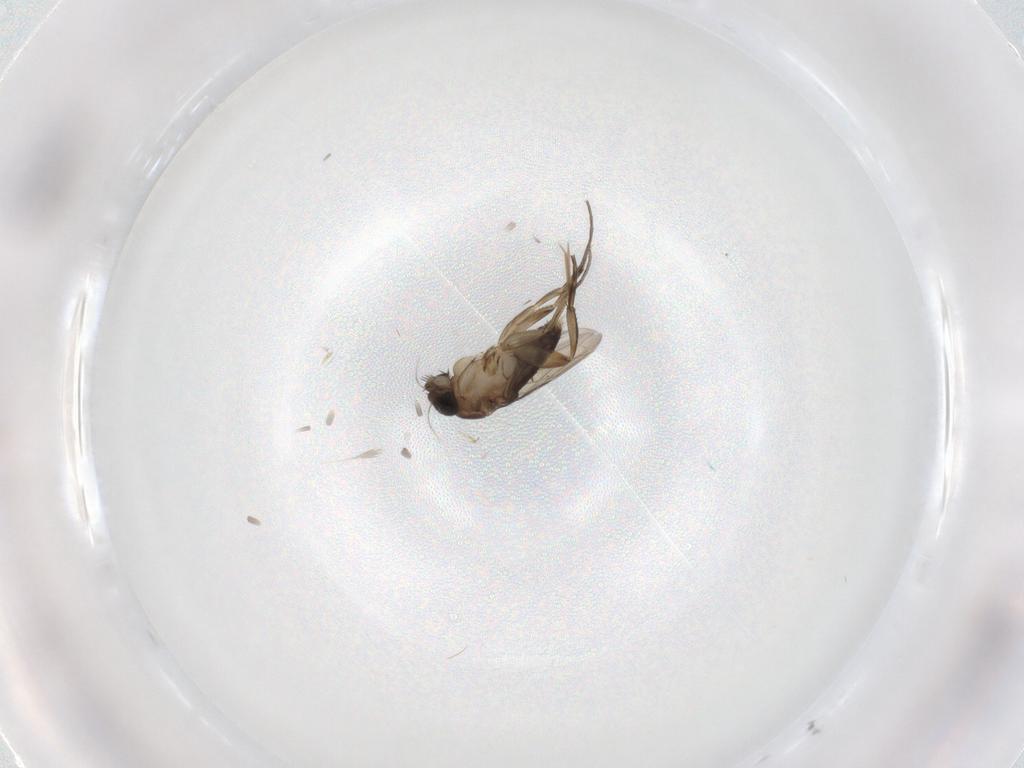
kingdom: Animalia
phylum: Arthropoda
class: Insecta
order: Diptera
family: Phoridae
